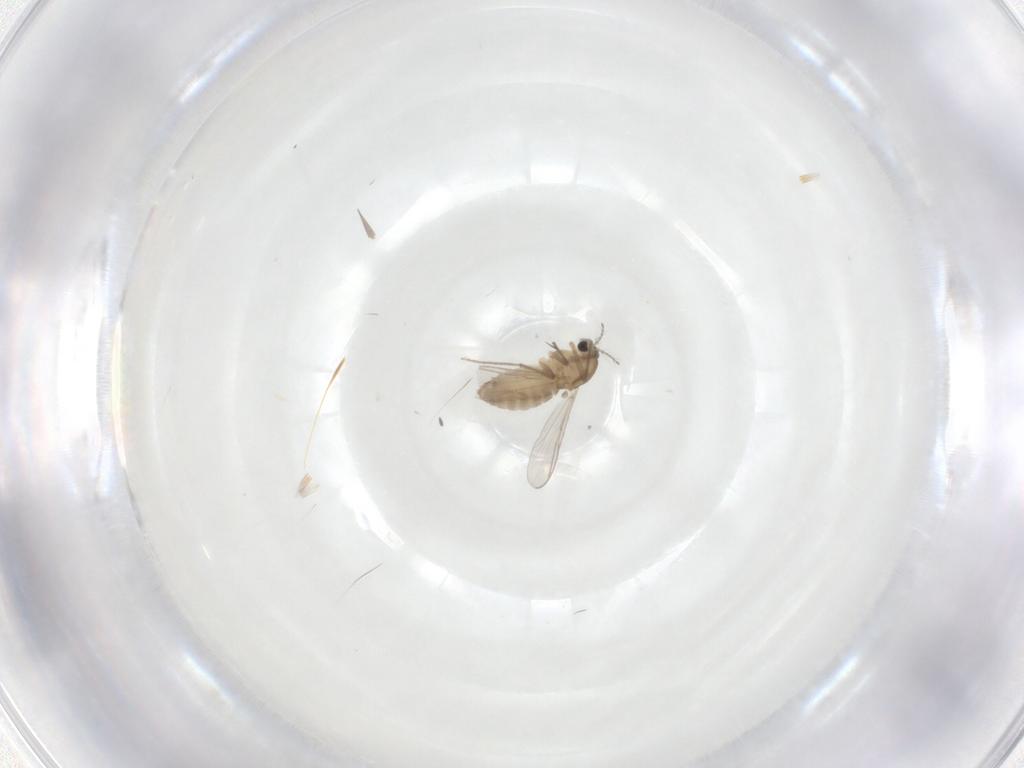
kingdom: Animalia
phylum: Arthropoda
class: Insecta
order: Diptera
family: Chironomidae
